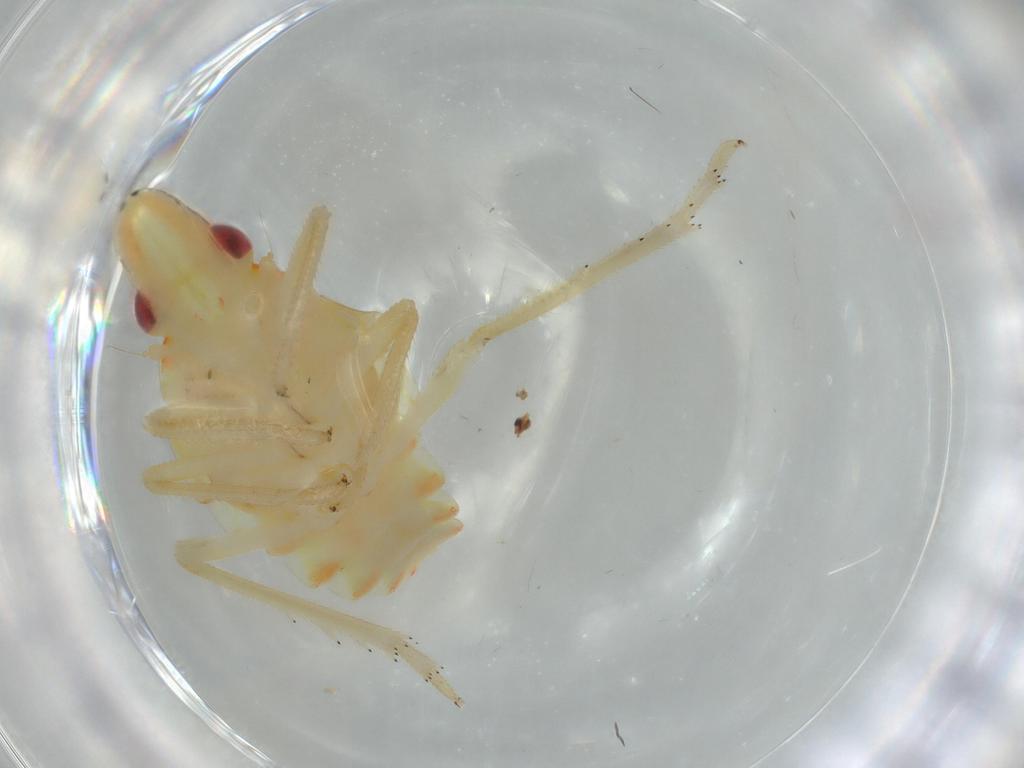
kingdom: Animalia
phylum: Arthropoda
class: Insecta
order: Hemiptera
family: Tropiduchidae
